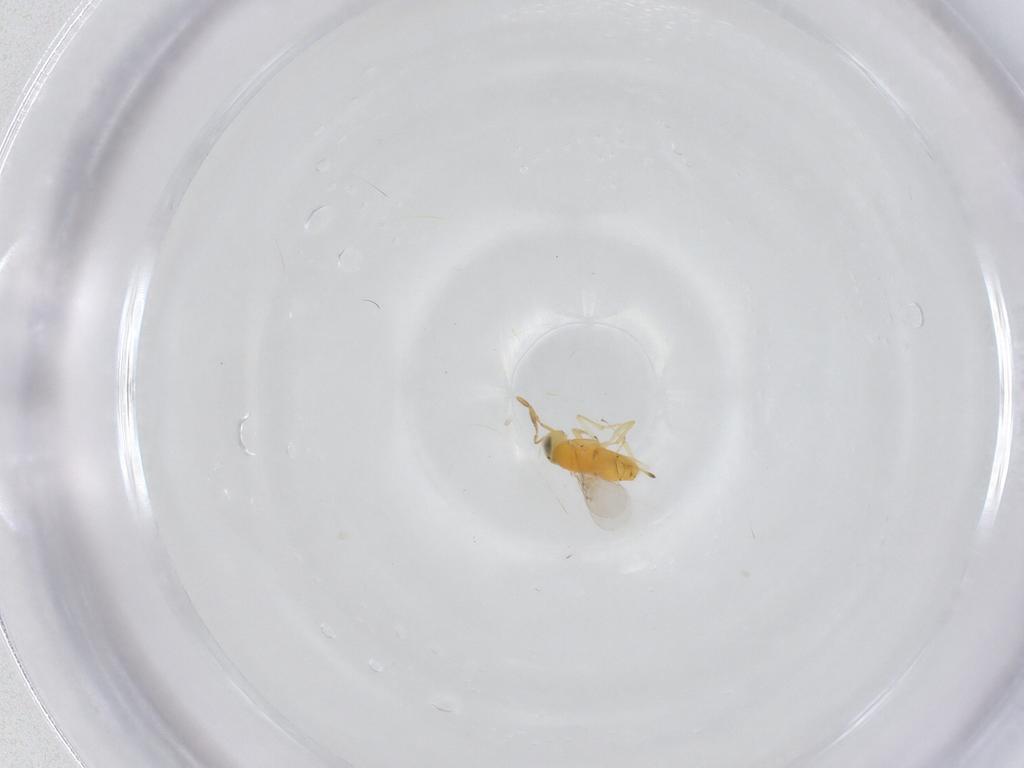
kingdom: Animalia
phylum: Arthropoda
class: Insecta
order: Hymenoptera
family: Encyrtidae
